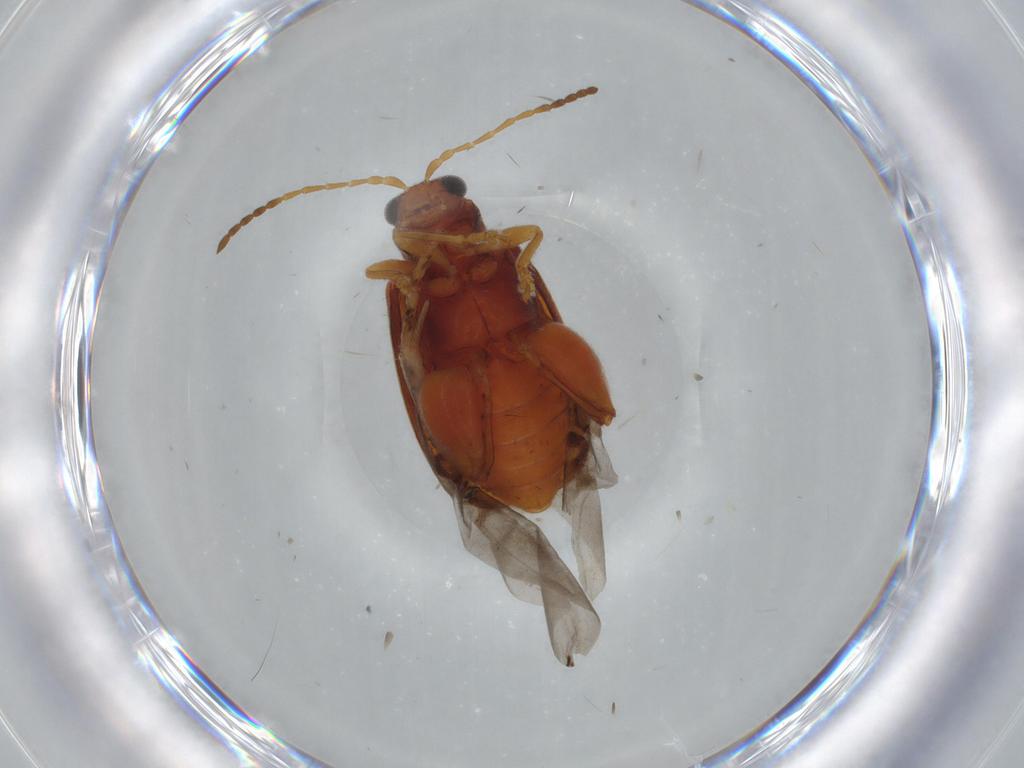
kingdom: Animalia
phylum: Arthropoda
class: Insecta
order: Coleoptera
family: Chrysomelidae
